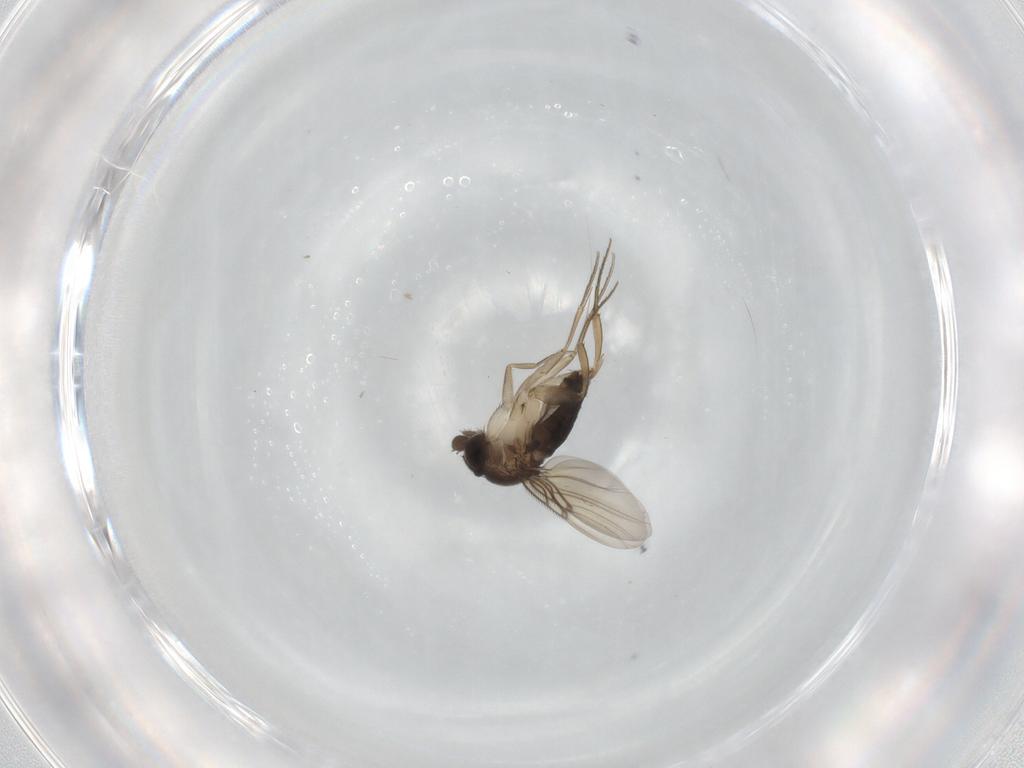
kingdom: Animalia
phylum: Arthropoda
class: Insecta
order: Diptera
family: Phoridae
